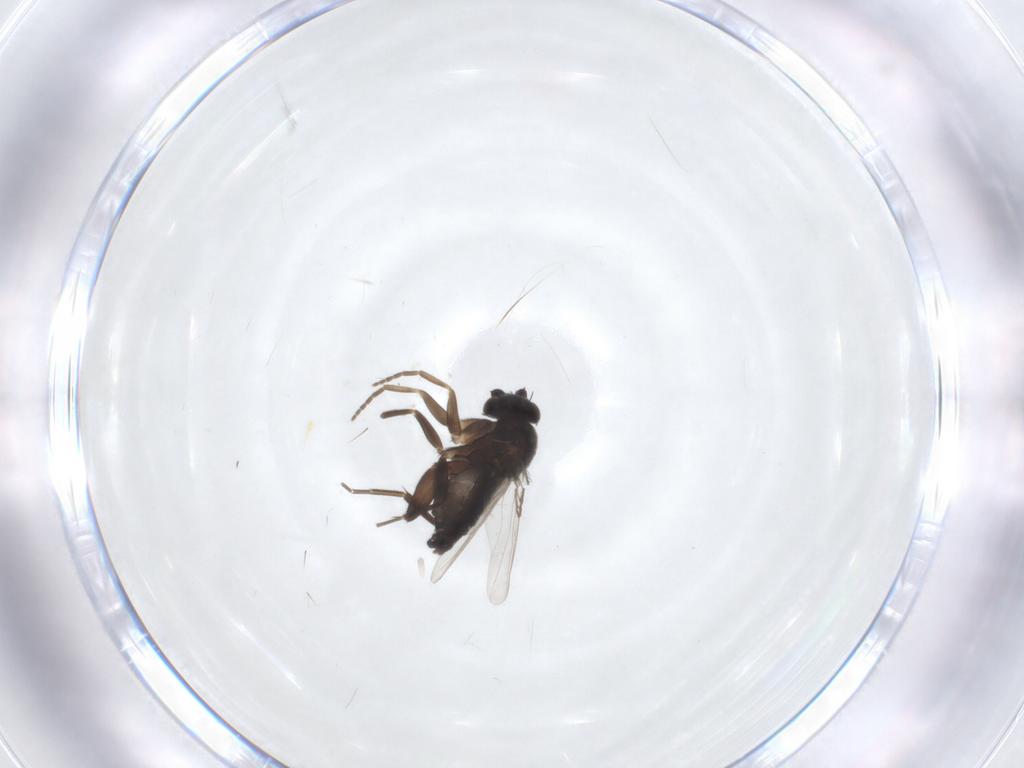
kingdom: Animalia
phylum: Arthropoda
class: Insecta
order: Diptera
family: Phoridae
